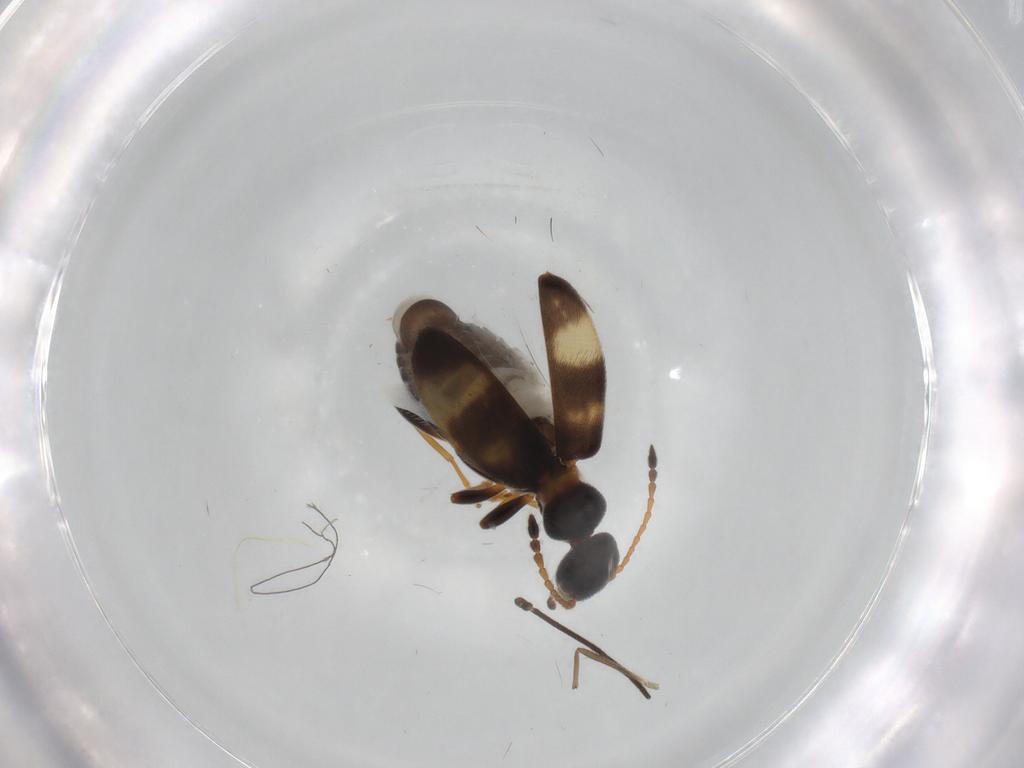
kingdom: Animalia
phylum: Arthropoda
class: Insecta
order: Coleoptera
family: Anthicidae
